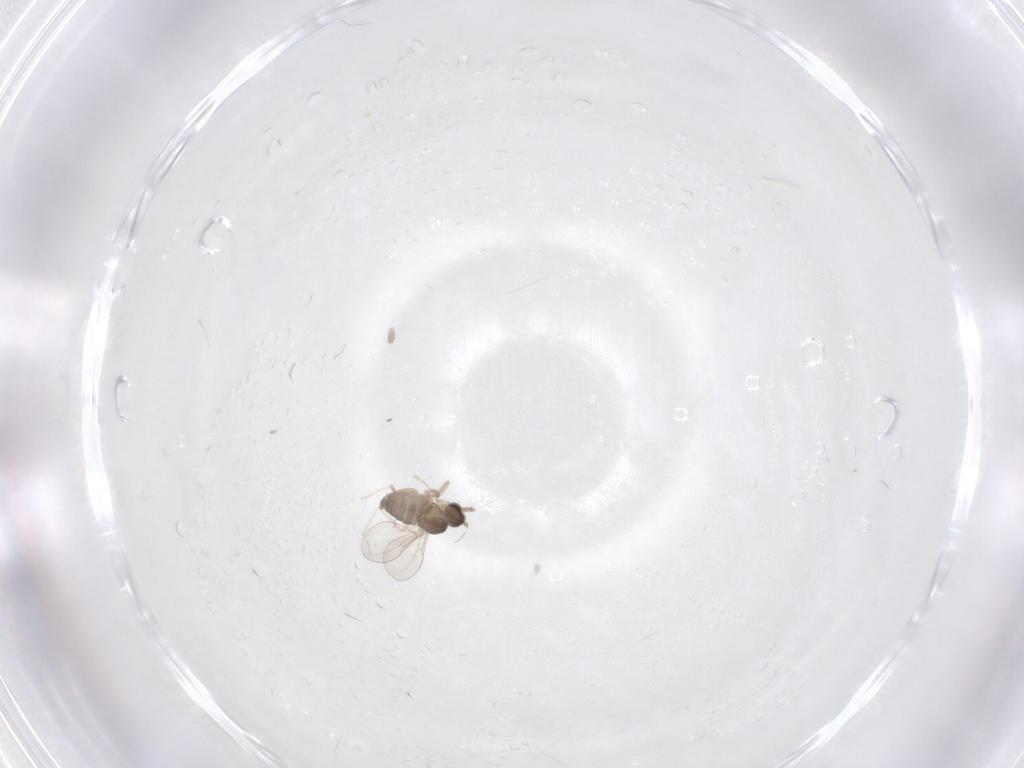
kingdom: Animalia
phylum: Arthropoda
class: Insecta
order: Diptera
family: Cecidomyiidae
